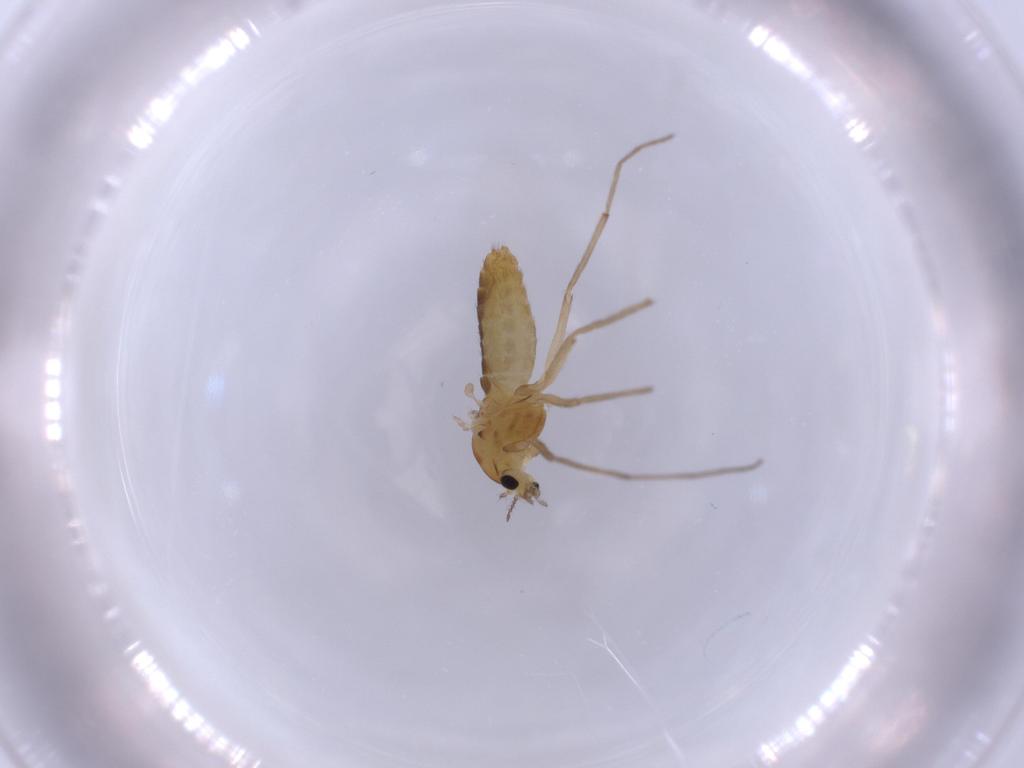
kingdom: Animalia
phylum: Arthropoda
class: Insecta
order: Diptera
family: Chironomidae
